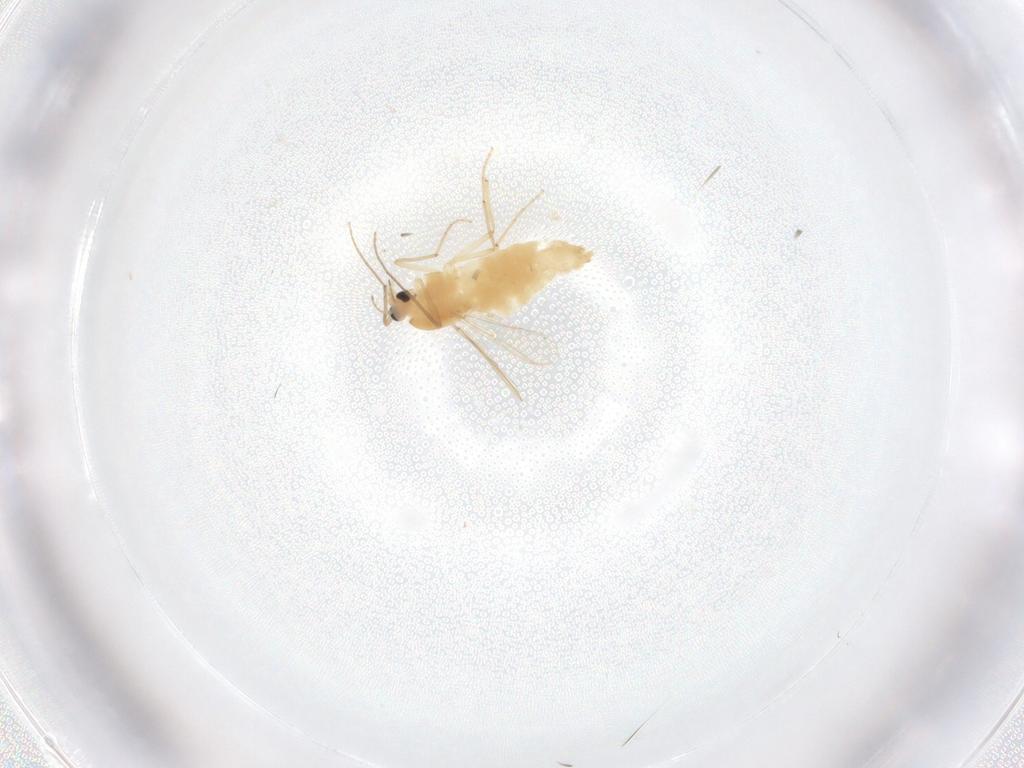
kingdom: Animalia
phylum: Arthropoda
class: Insecta
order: Diptera
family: Chironomidae
